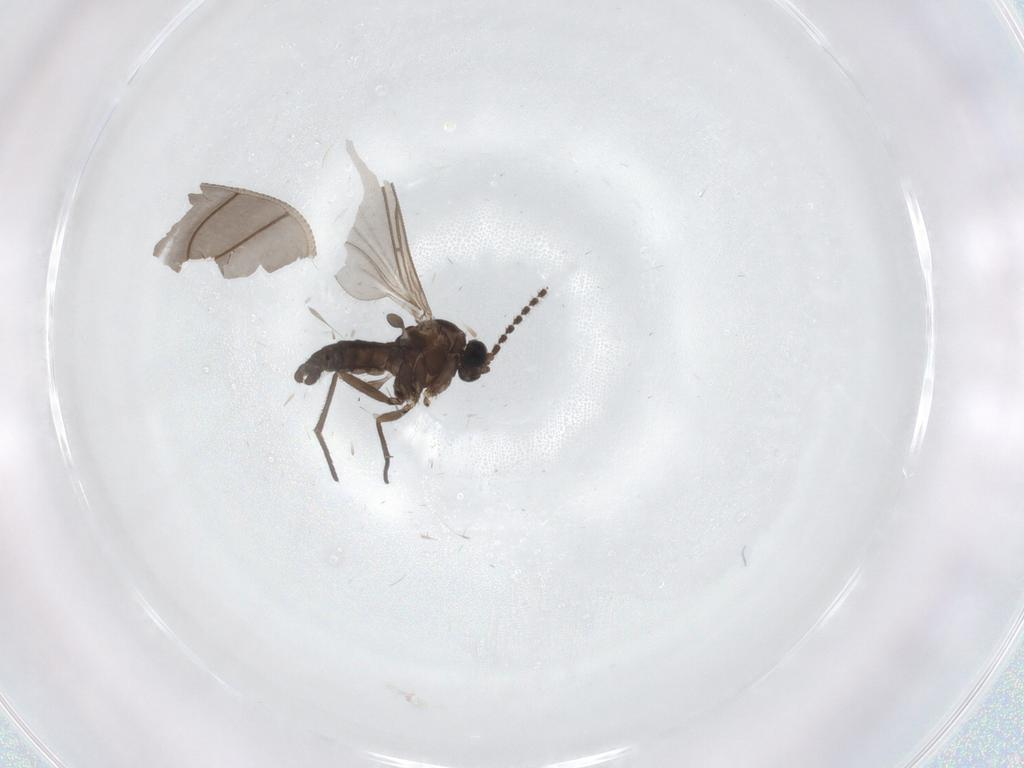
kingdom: Animalia
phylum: Arthropoda
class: Insecta
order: Diptera
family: Sciaridae
